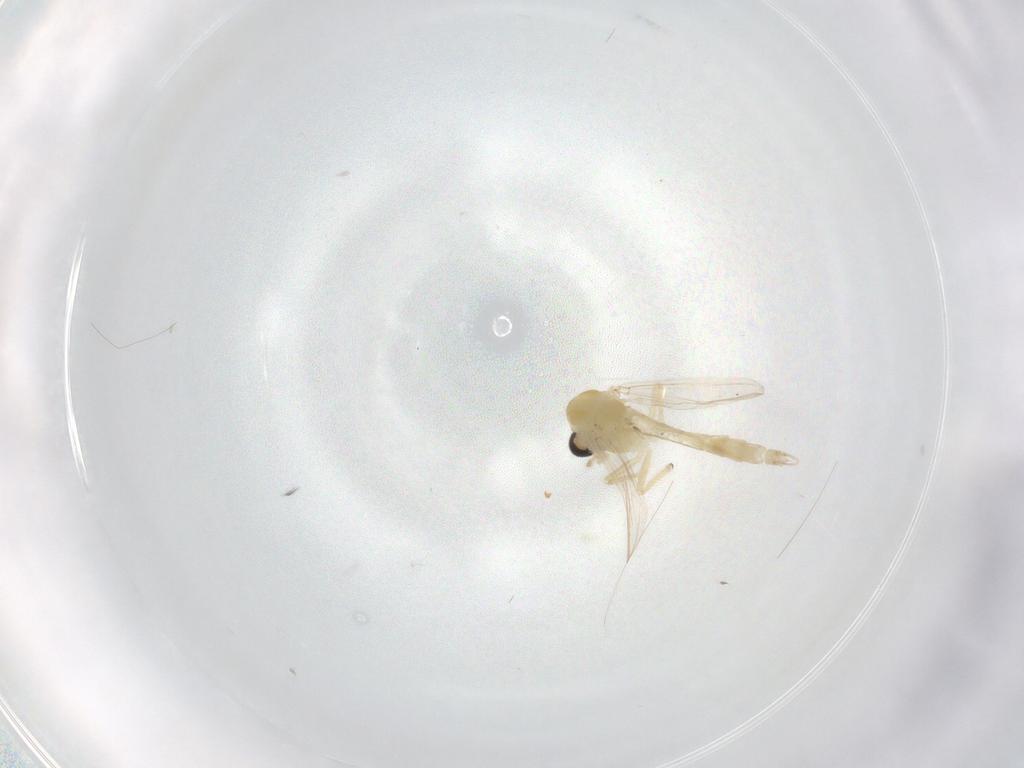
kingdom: Animalia
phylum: Arthropoda
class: Insecta
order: Diptera
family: Chironomidae
